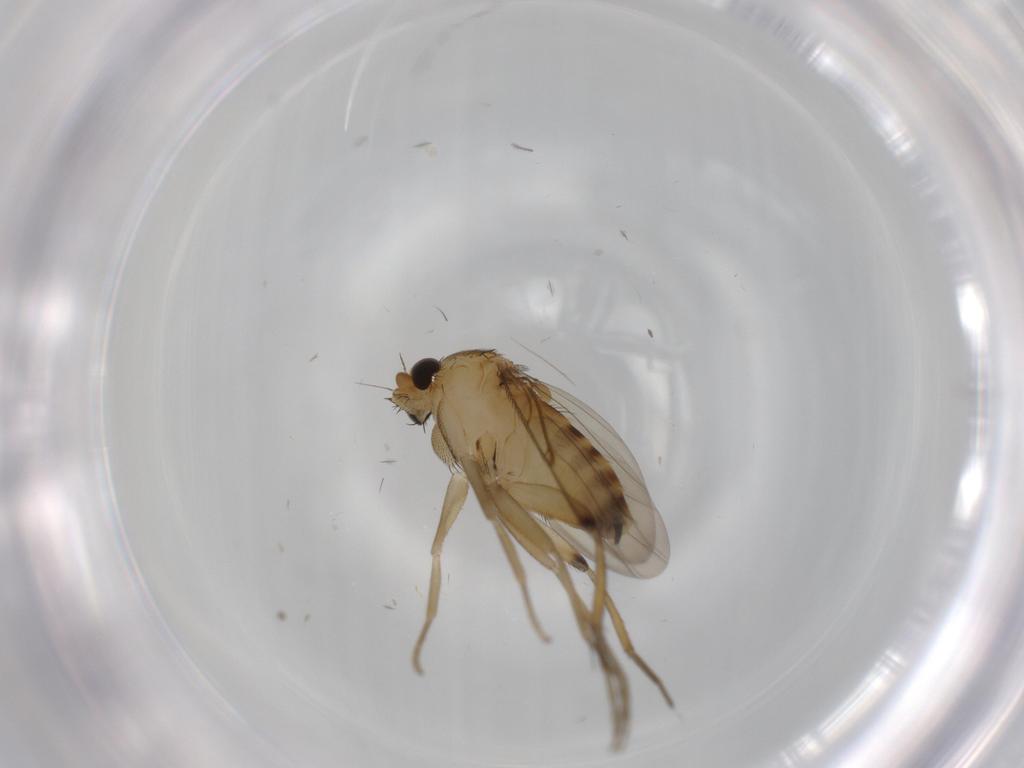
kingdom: Animalia
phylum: Arthropoda
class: Insecta
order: Diptera
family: Phoridae
